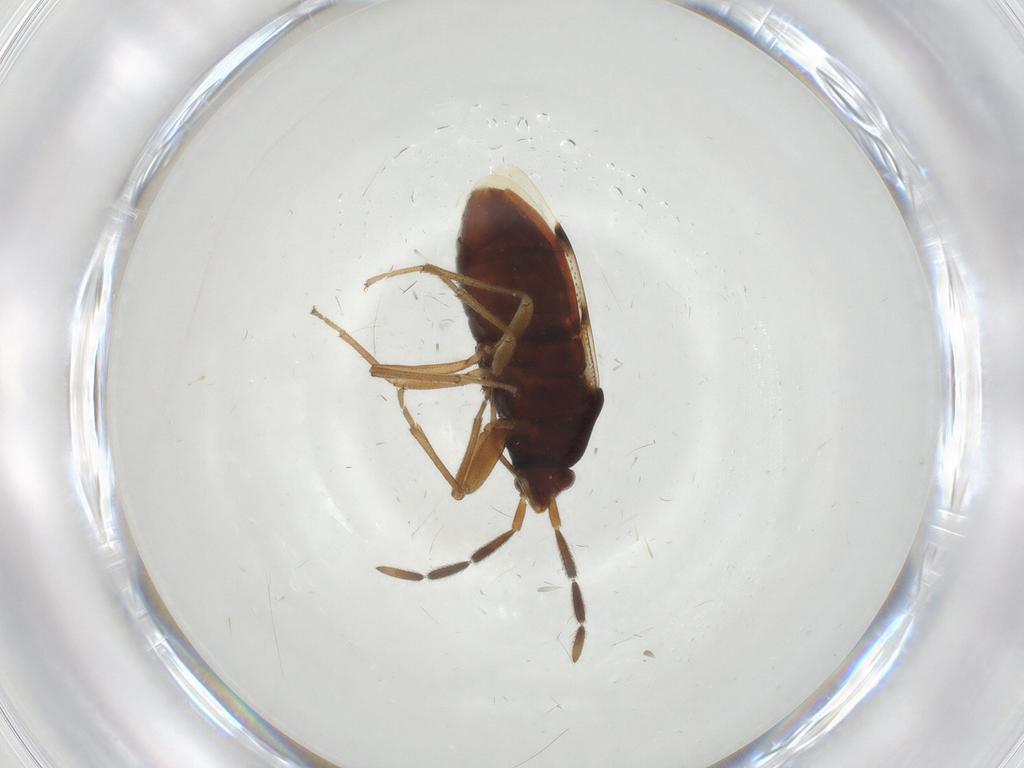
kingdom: Animalia
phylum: Arthropoda
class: Insecta
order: Hemiptera
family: Rhyparochromidae
